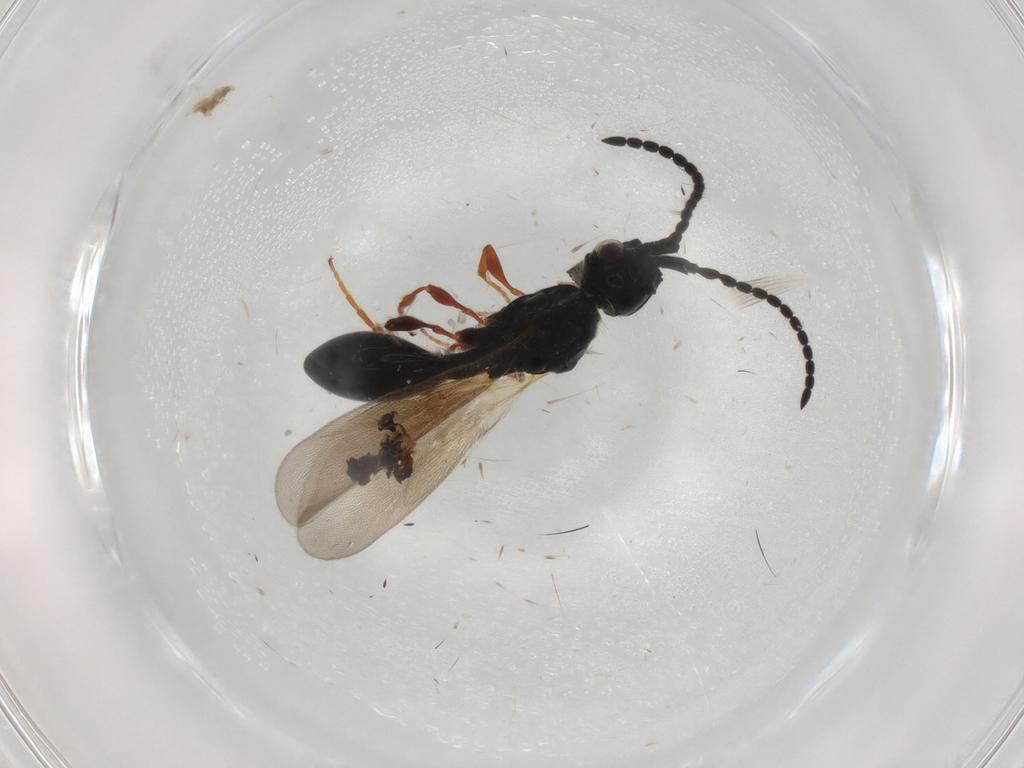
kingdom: Animalia
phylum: Arthropoda
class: Insecta
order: Hymenoptera
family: Diapriidae
